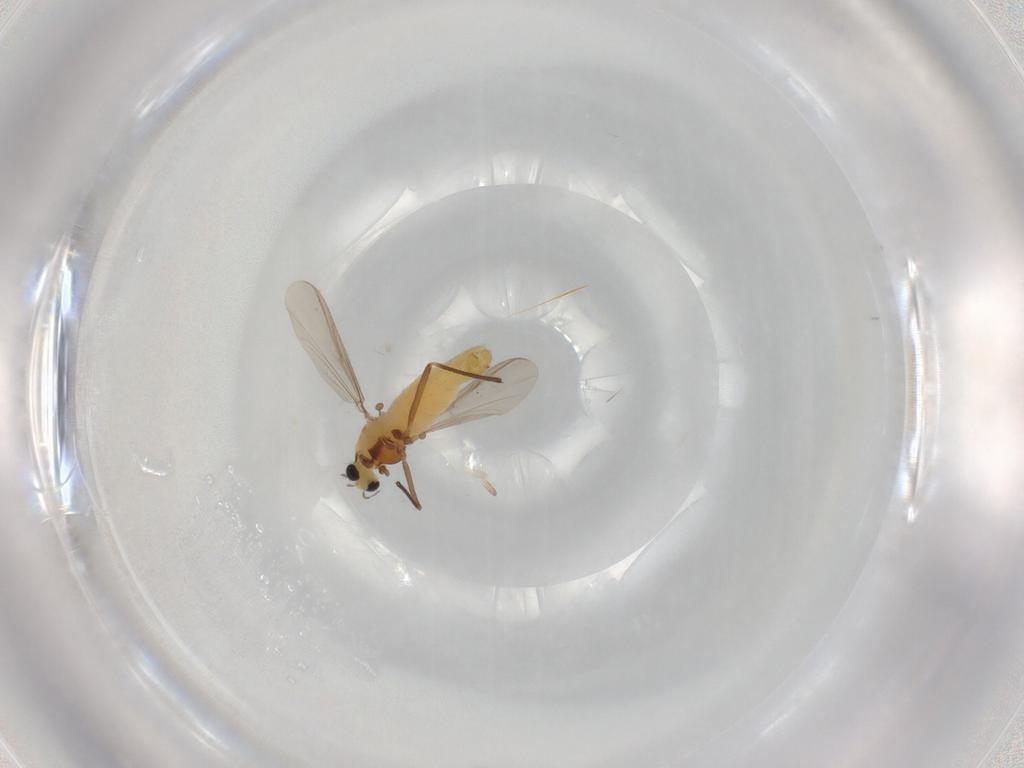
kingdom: Animalia
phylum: Arthropoda
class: Insecta
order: Diptera
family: Chironomidae
